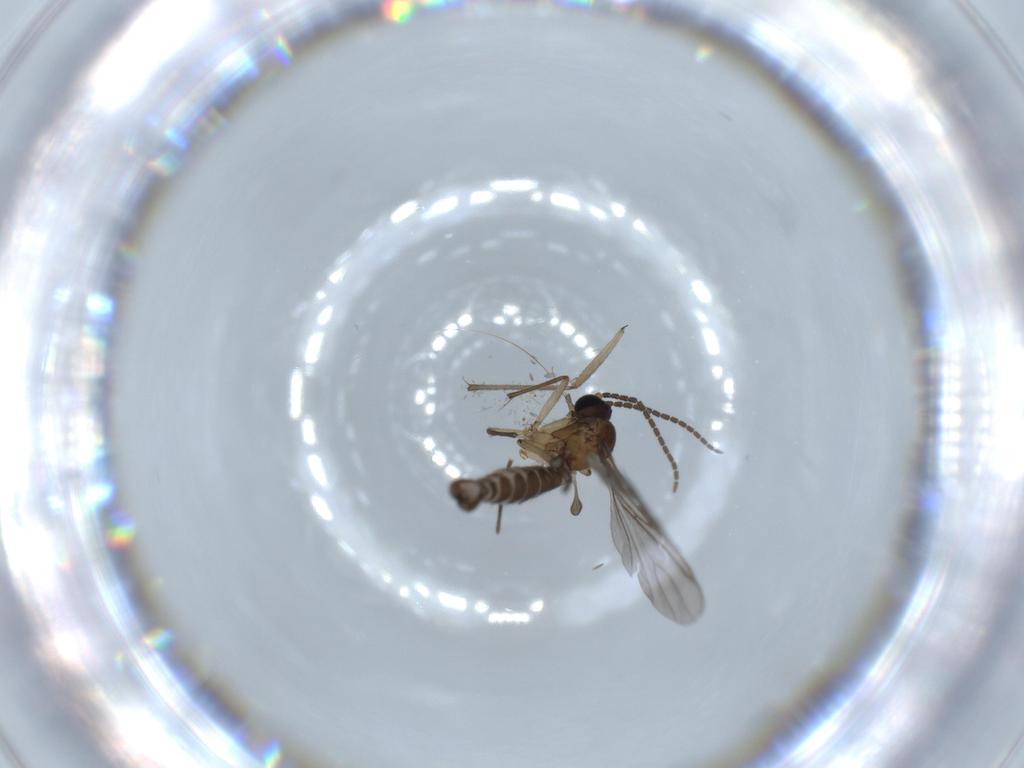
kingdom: Animalia
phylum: Arthropoda
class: Insecta
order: Diptera
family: Sciaridae
